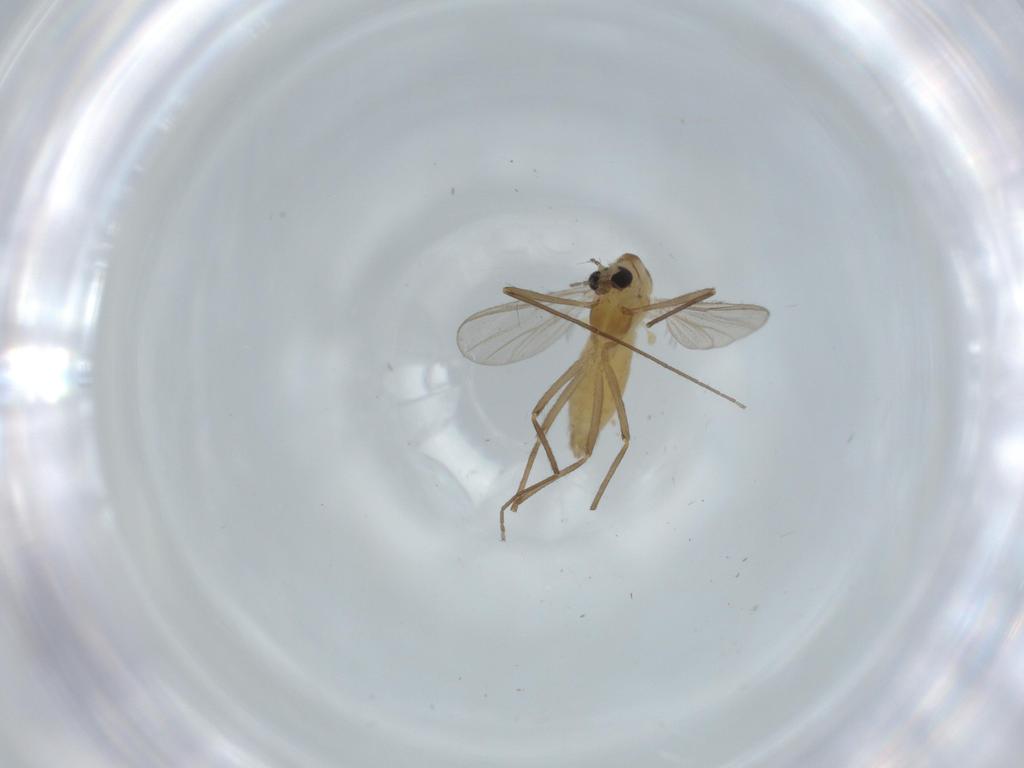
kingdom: Animalia
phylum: Arthropoda
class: Insecta
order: Diptera
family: Chironomidae
